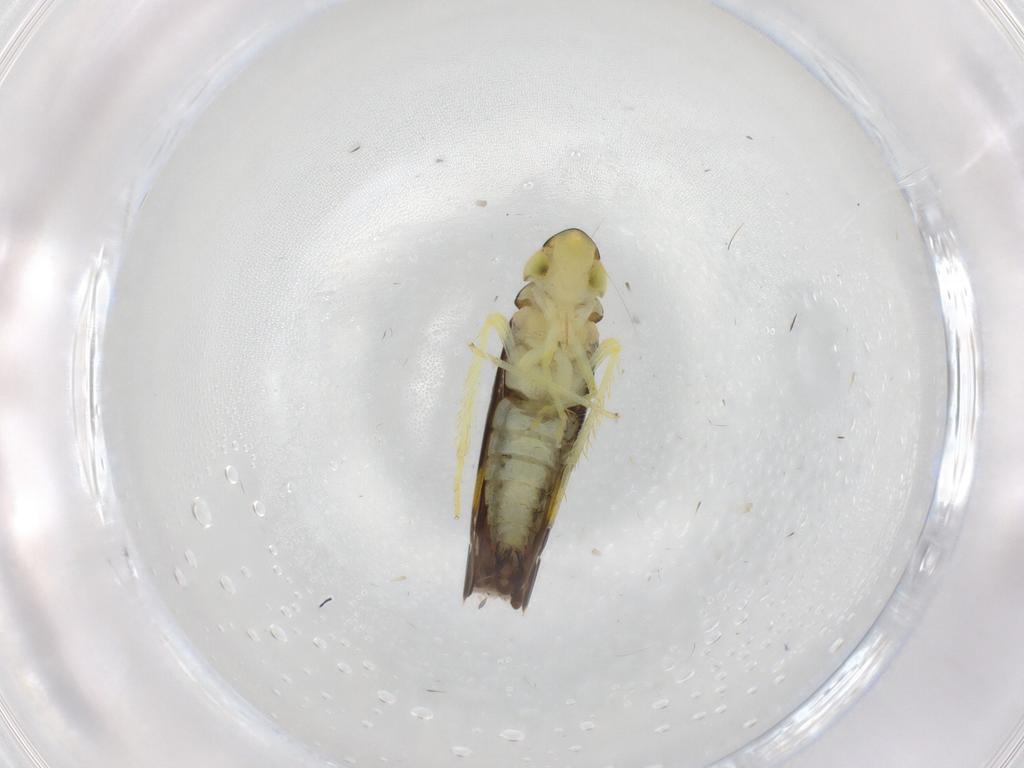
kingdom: Animalia
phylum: Arthropoda
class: Insecta
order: Hemiptera
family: Cicadellidae
